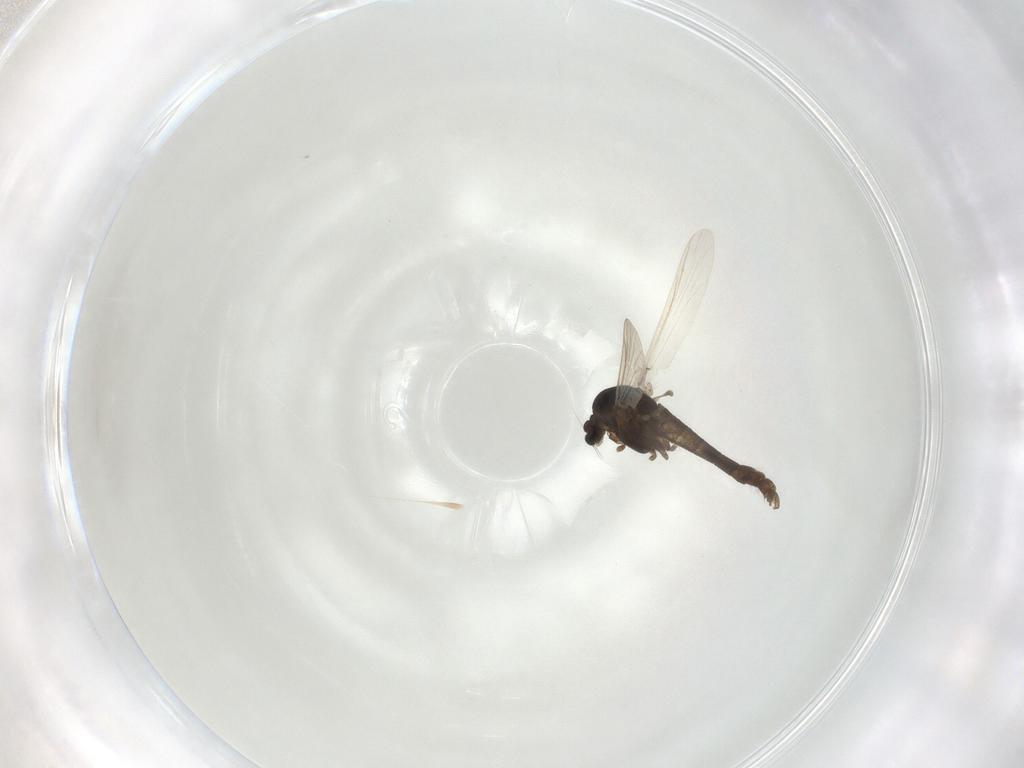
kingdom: Animalia
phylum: Arthropoda
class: Insecta
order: Diptera
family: Chironomidae
